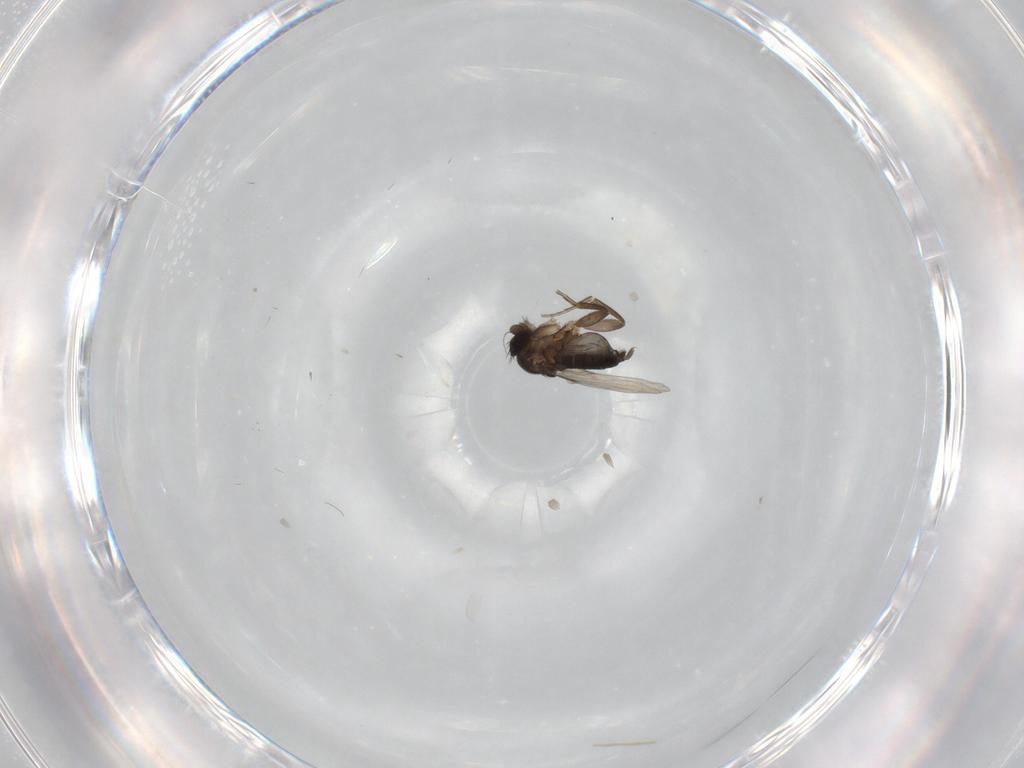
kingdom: Animalia
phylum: Arthropoda
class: Insecta
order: Diptera
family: Phoridae
